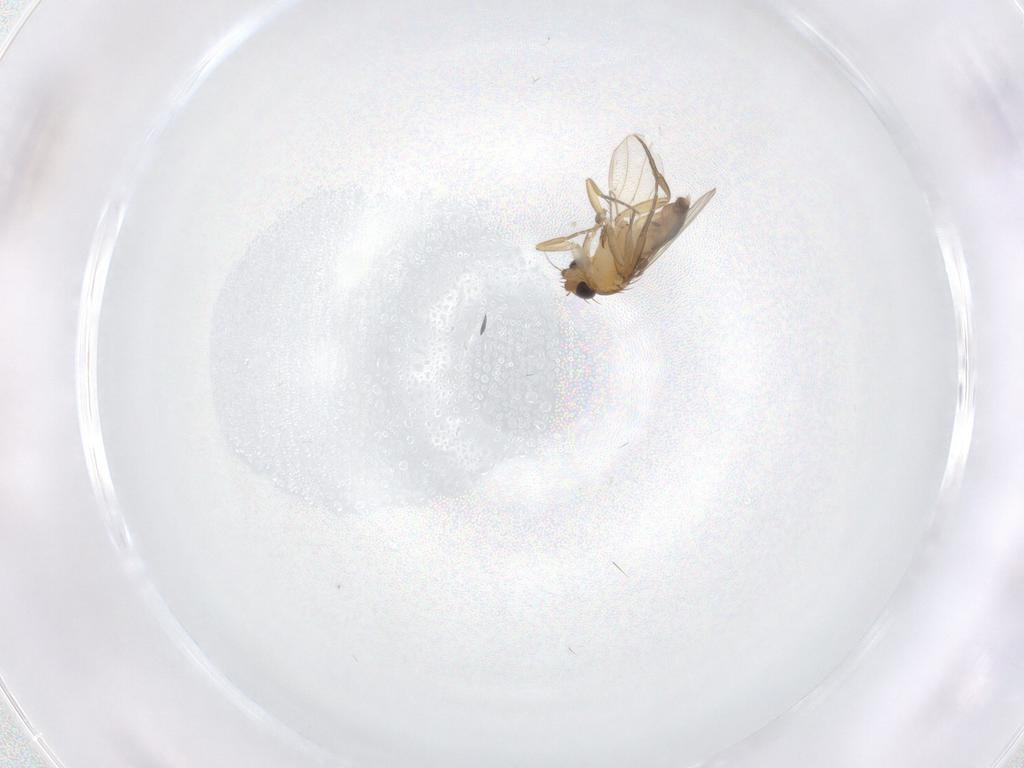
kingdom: Animalia
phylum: Arthropoda
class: Insecta
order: Diptera
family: Phoridae
